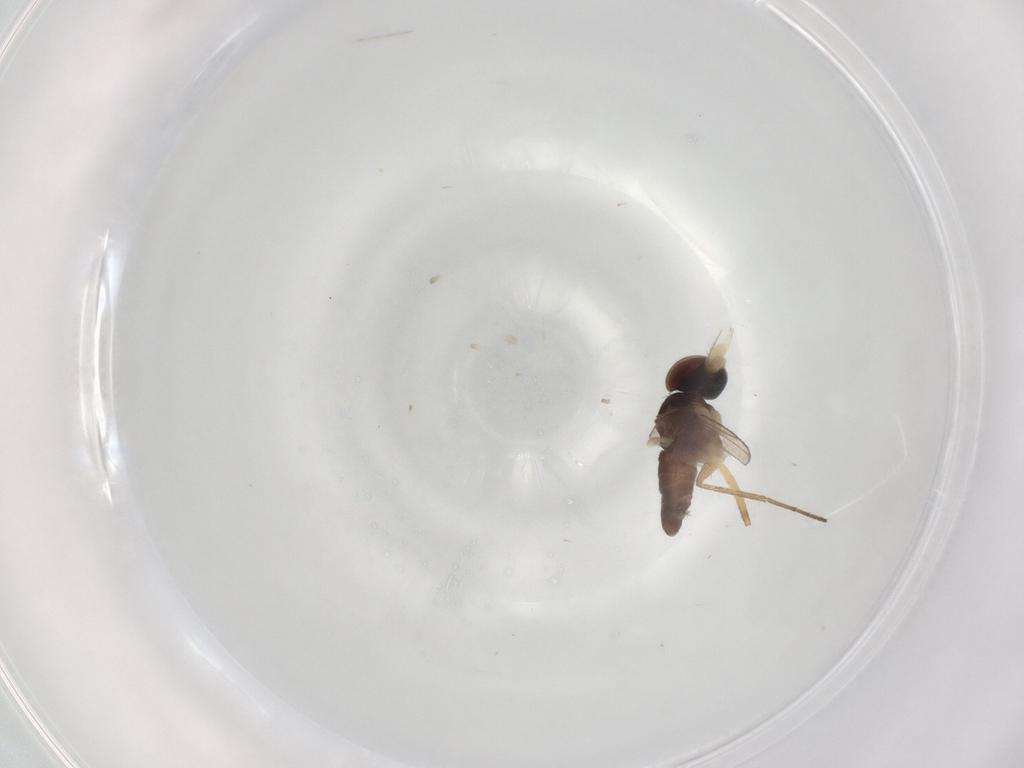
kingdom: Animalia
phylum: Arthropoda
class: Insecta
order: Diptera
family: Dolichopodidae
